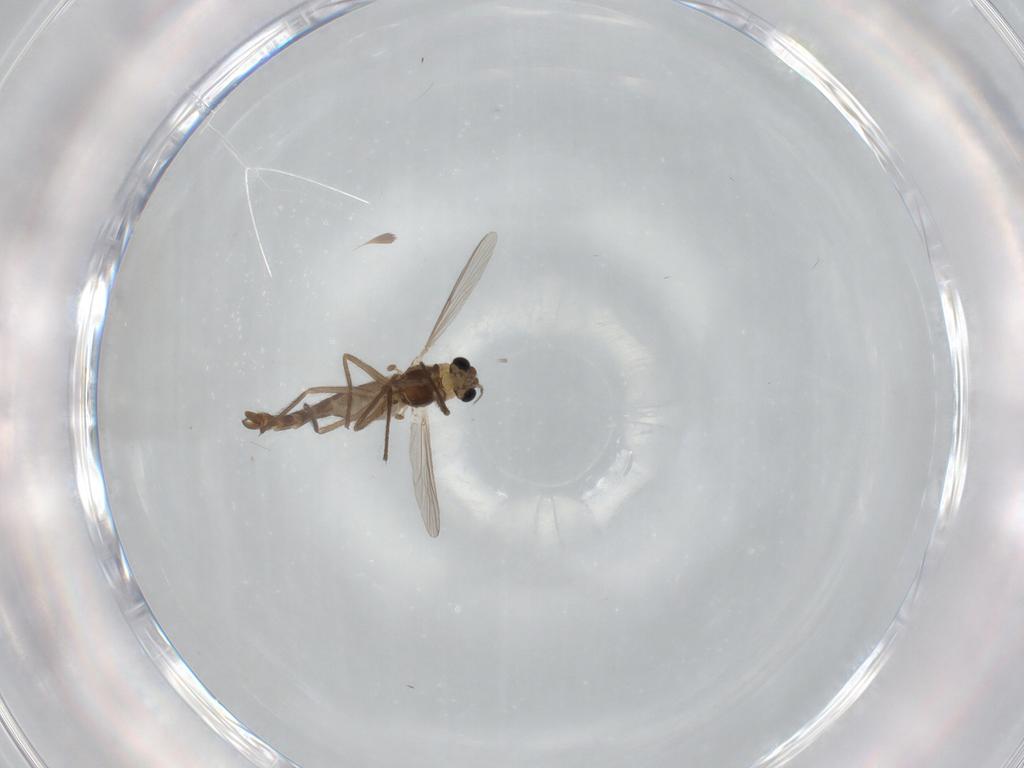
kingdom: Animalia
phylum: Arthropoda
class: Insecta
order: Diptera
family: Chironomidae
